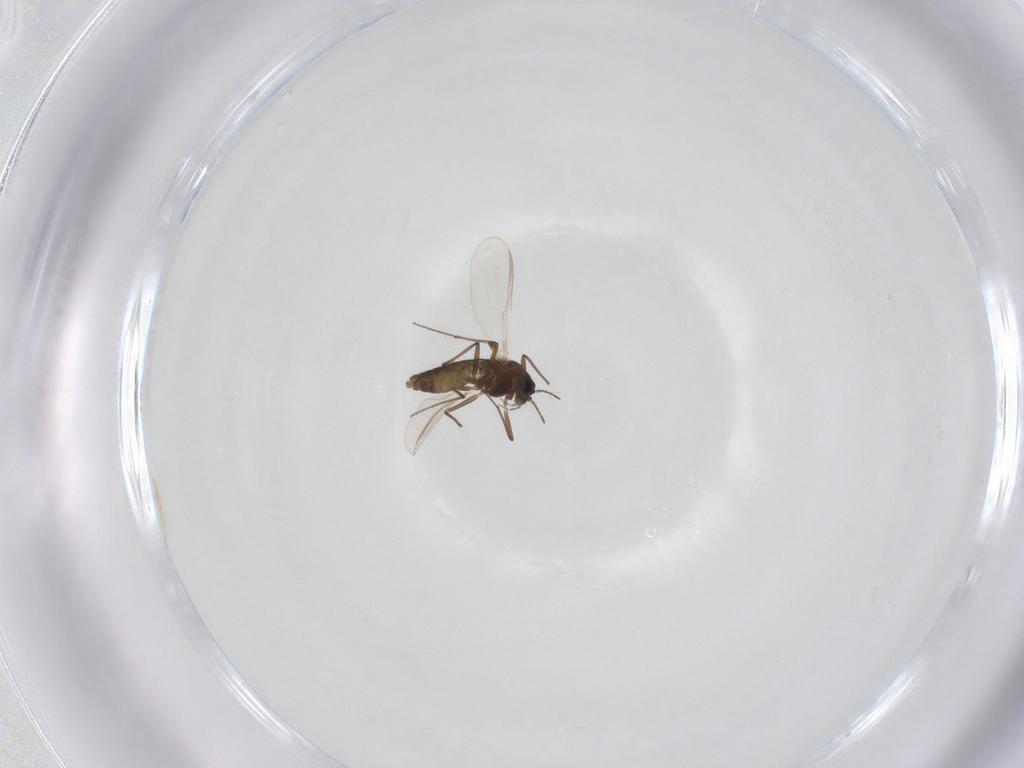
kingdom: Animalia
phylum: Arthropoda
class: Insecta
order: Diptera
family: Chironomidae
